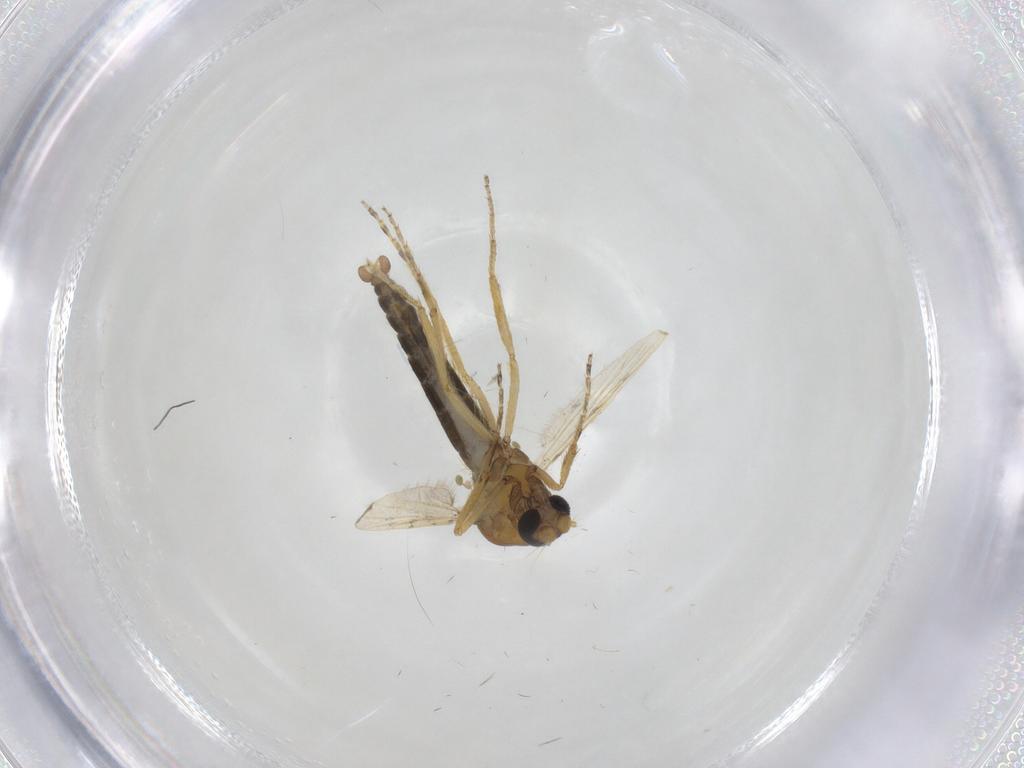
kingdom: Animalia
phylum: Arthropoda
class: Insecta
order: Diptera
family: Ceratopogonidae
